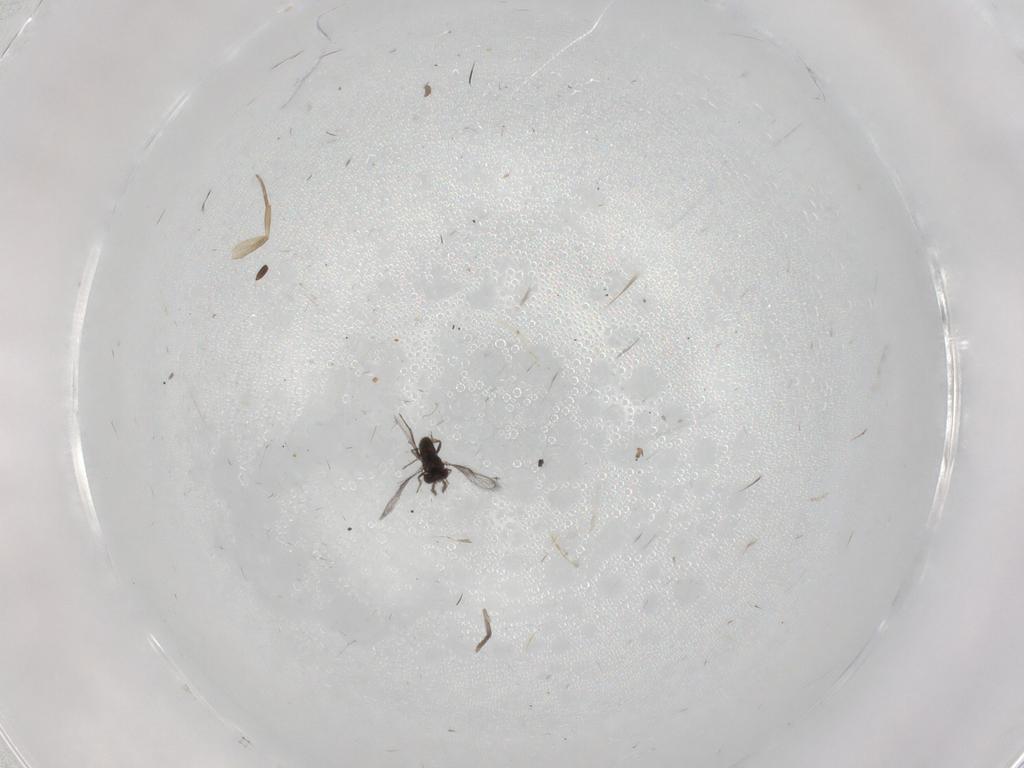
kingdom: Animalia
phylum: Arthropoda
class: Insecta
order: Hymenoptera
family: Trichogrammatidae
